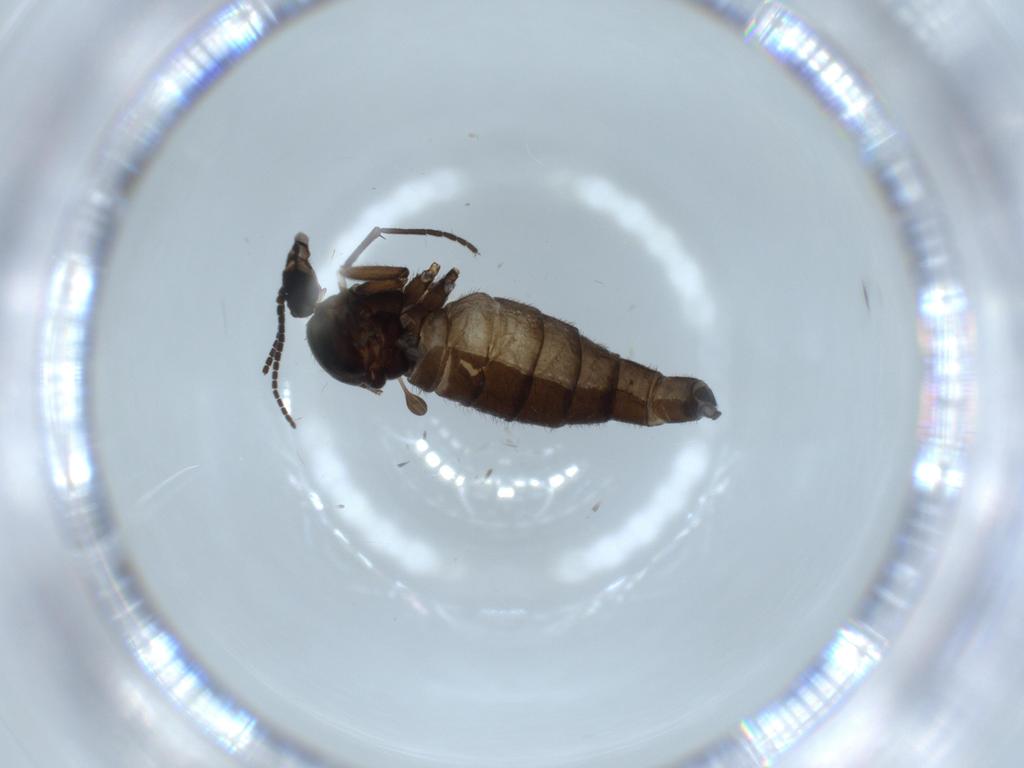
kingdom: Animalia
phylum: Arthropoda
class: Insecta
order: Diptera
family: Sciaridae
